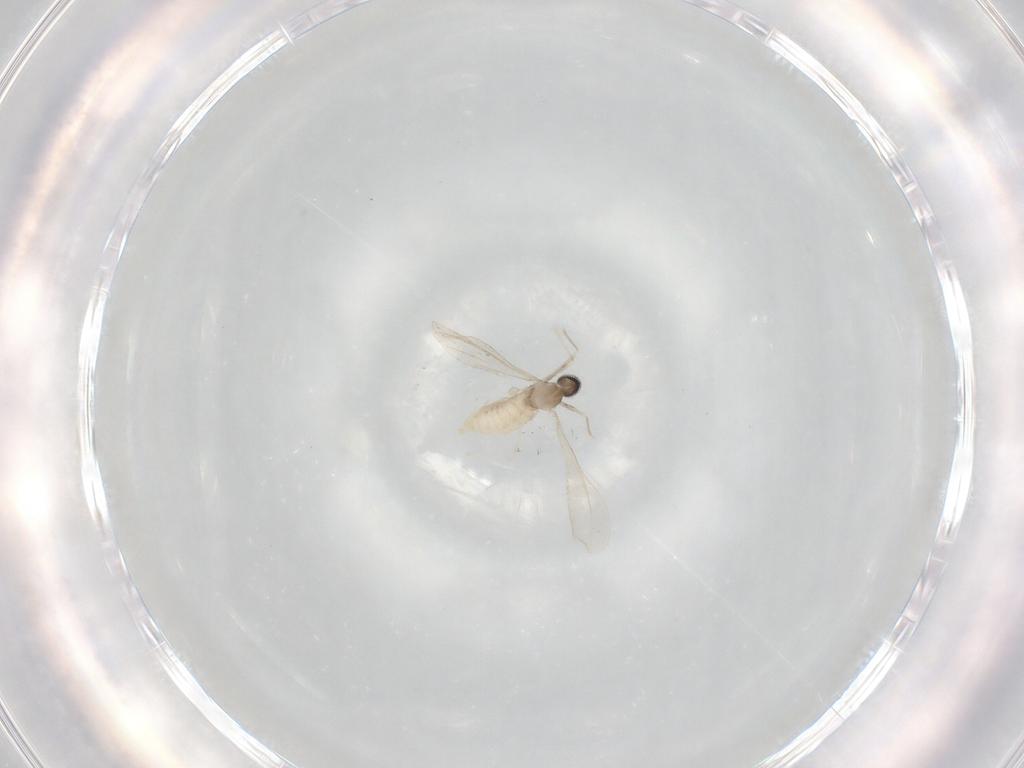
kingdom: Animalia
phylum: Arthropoda
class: Insecta
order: Diptera
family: Cecidomyiidae
